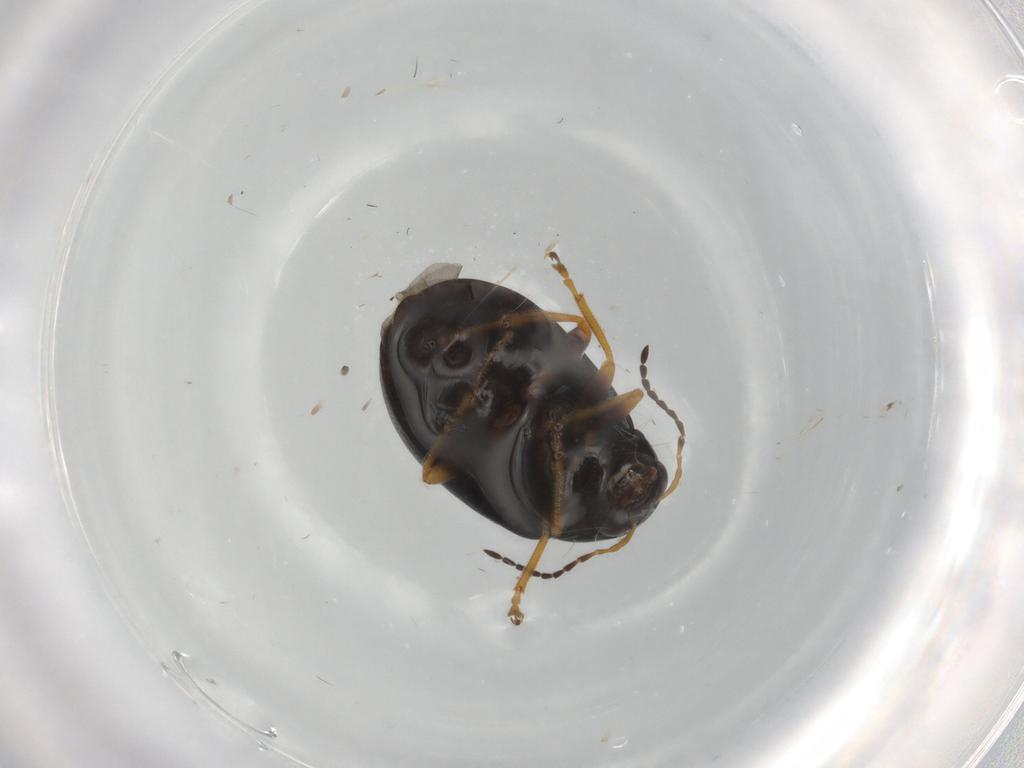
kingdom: Animalia
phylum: Arthropoda
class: Insecta
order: Coleoptera
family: Chrysomelidae
